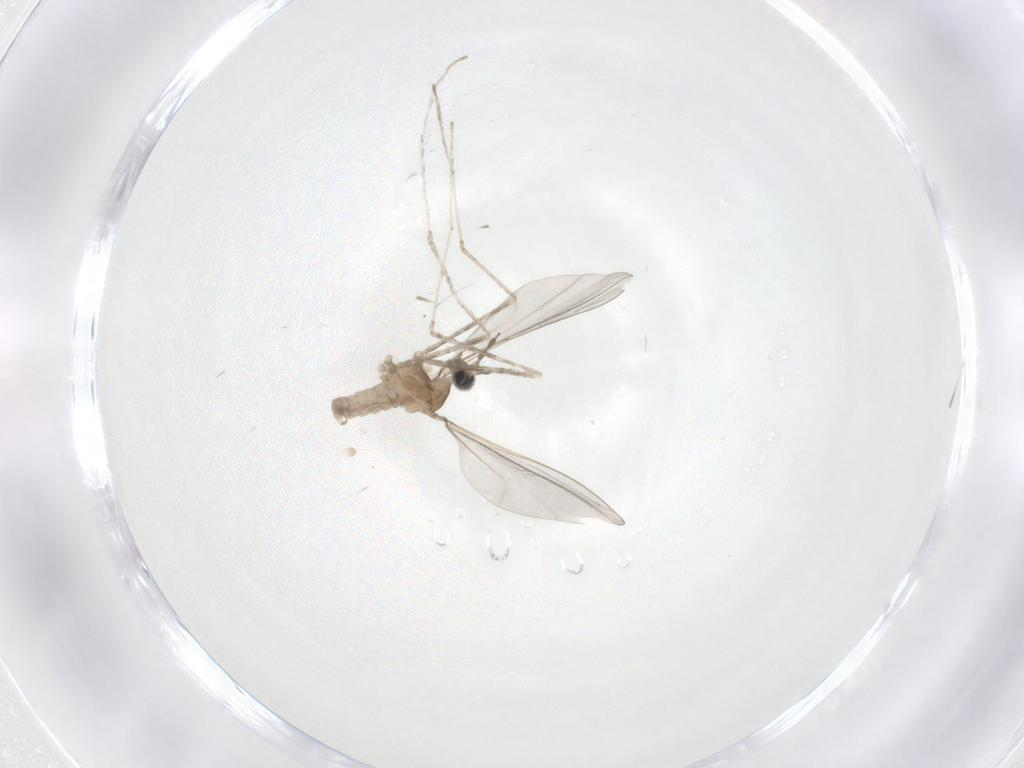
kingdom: Animalia
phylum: Arthropoda
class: Insecta
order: Diptera
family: Cecidomyiidae
